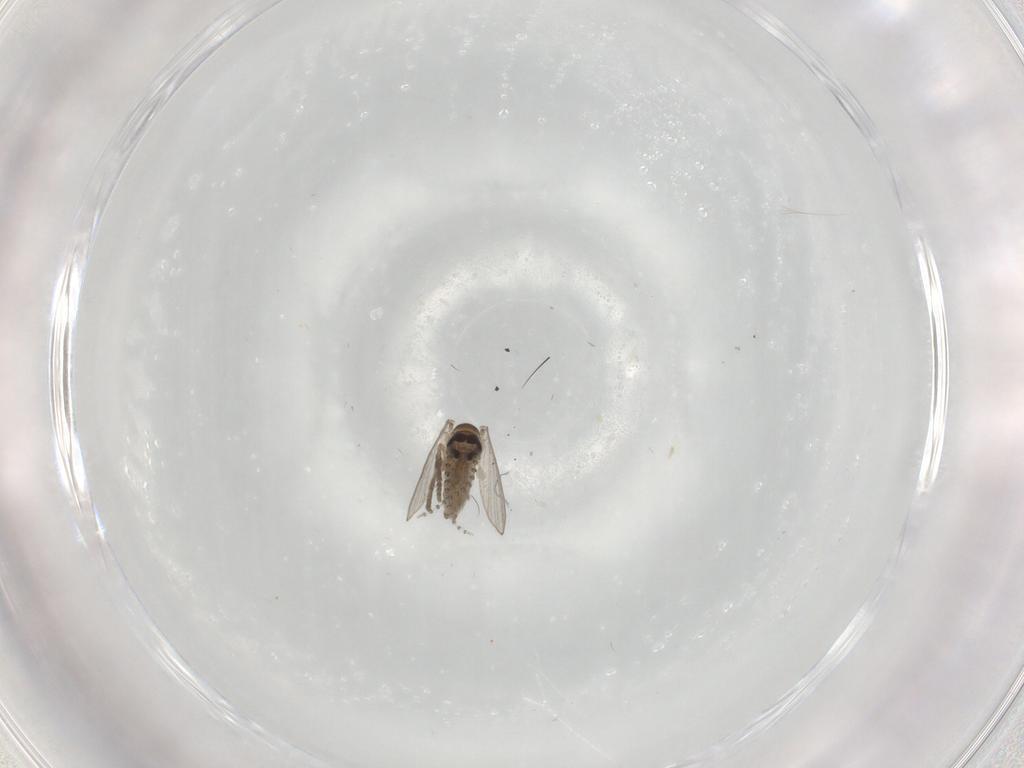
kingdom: Animalia
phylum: Arthropoda
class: Insecta
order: Diptera
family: Psychodidae
